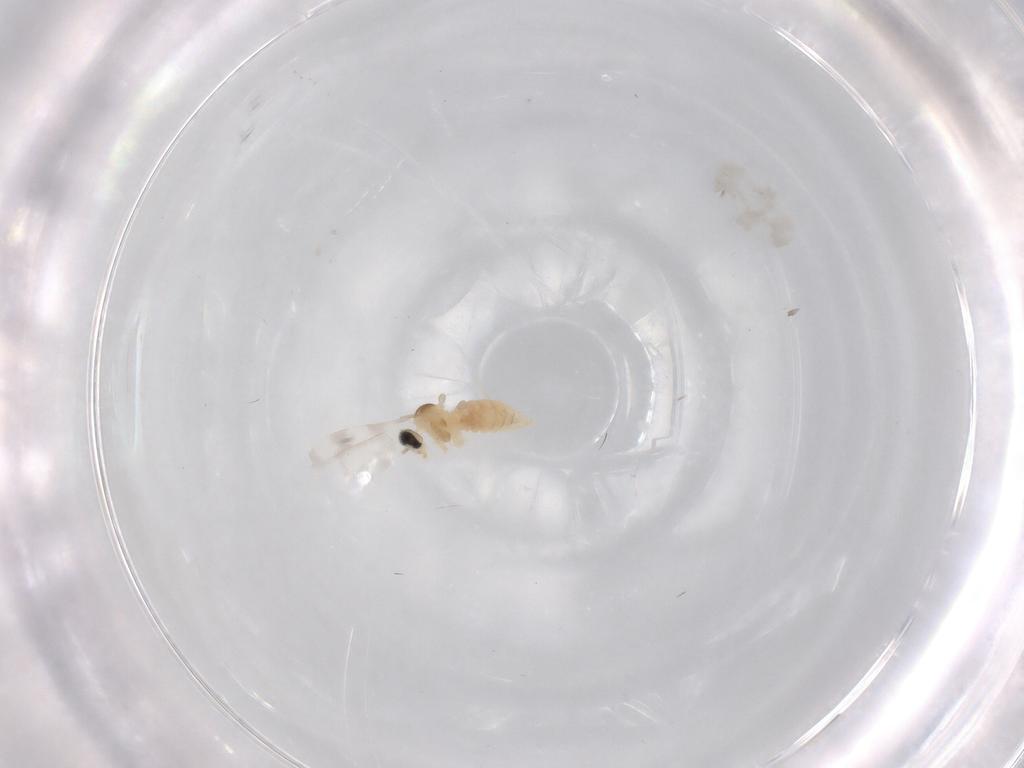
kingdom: Animalia
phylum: Arthropoda
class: Insecta
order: Diptera
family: Cecidomyiidae
